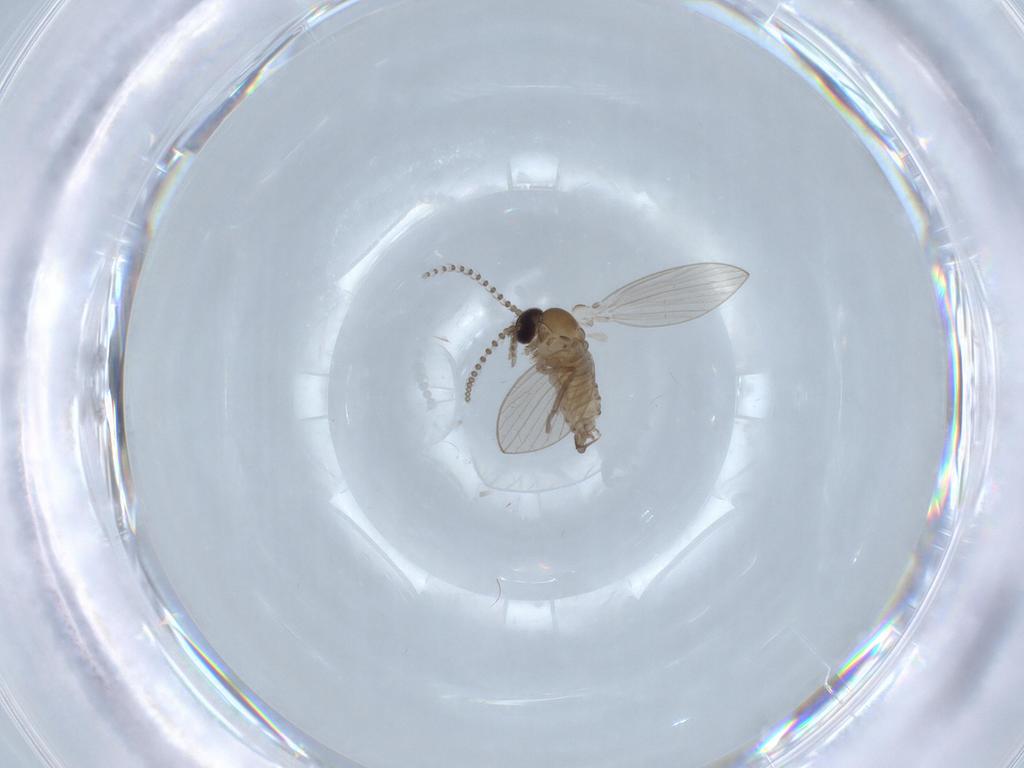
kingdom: Animalia
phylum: Arthropoda
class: Insecta
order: Diptera
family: Psychodidae
